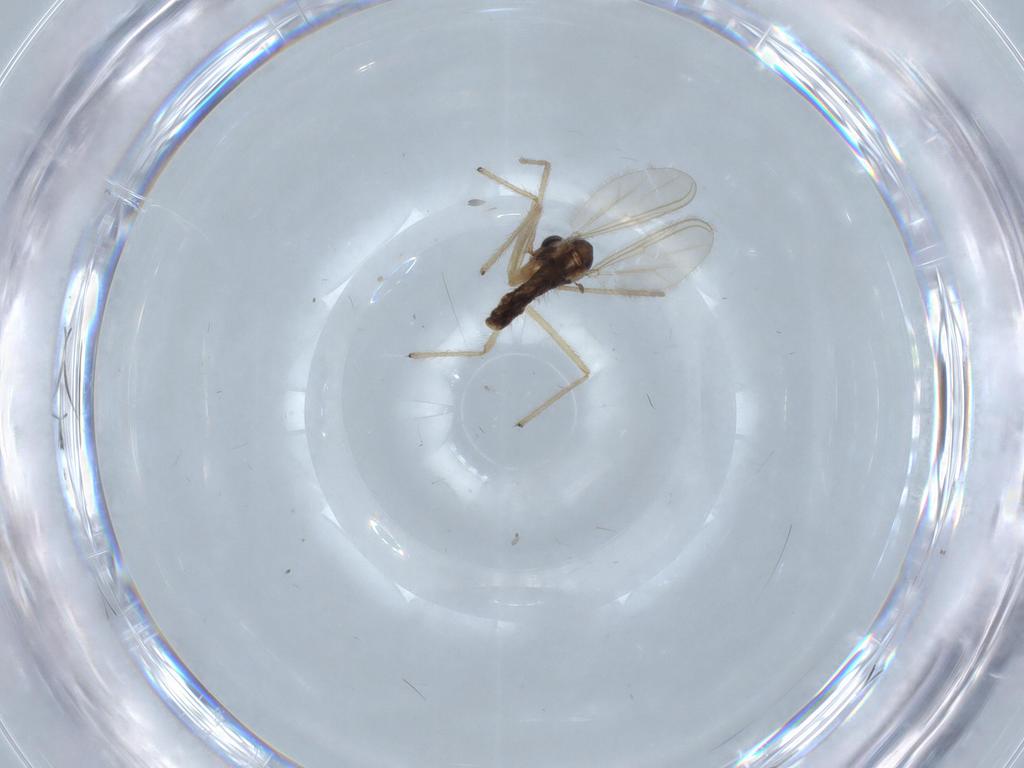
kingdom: Animalia
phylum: Arthropoda
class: Insecta
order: Diptera
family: Chironomidae
